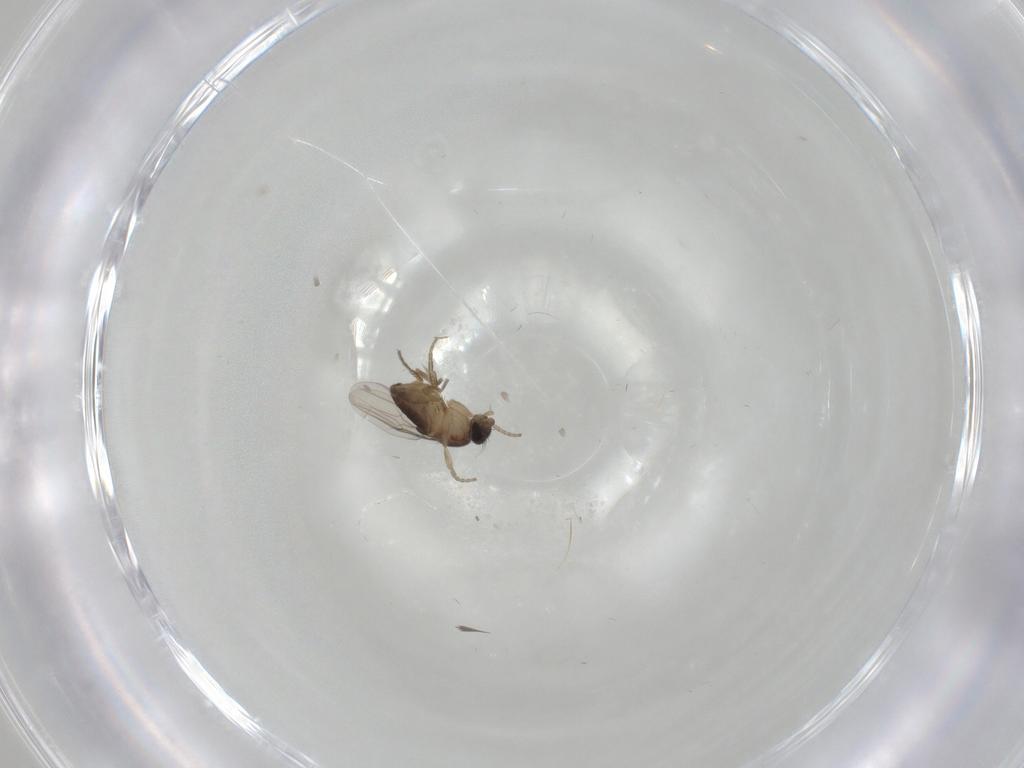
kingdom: Animalia
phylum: Arthropoda
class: Insecta
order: Diptera
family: Phoridae
